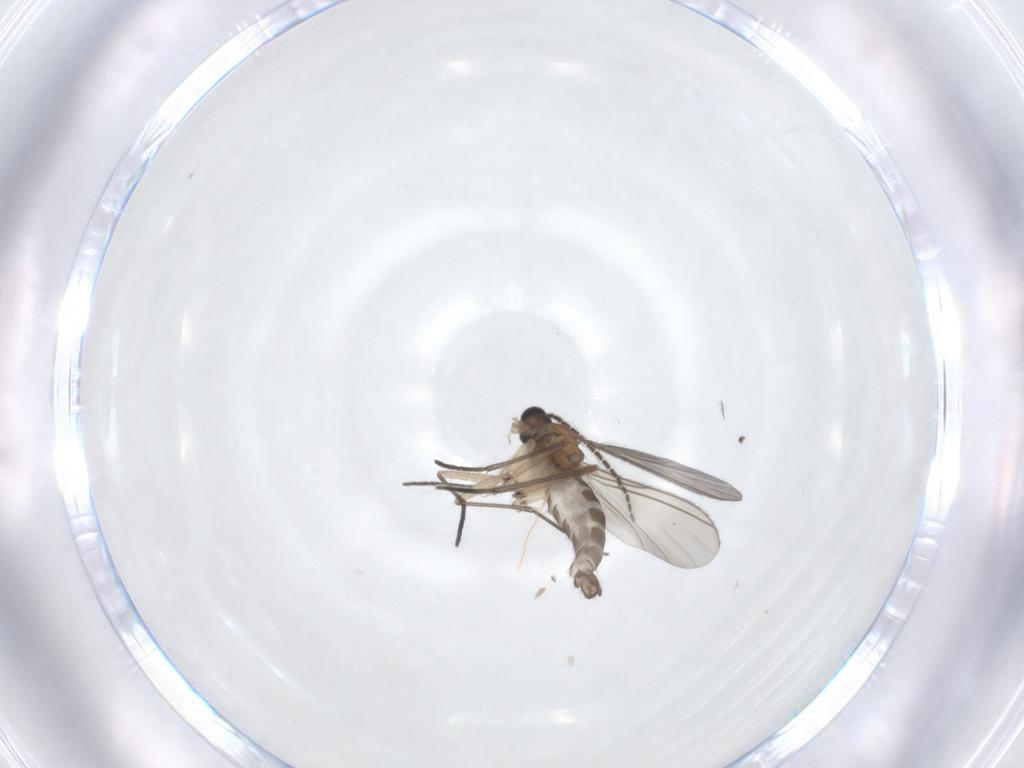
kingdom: Animalia
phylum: Arthropoda
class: Insecta
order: Diptera
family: Sciaridae
